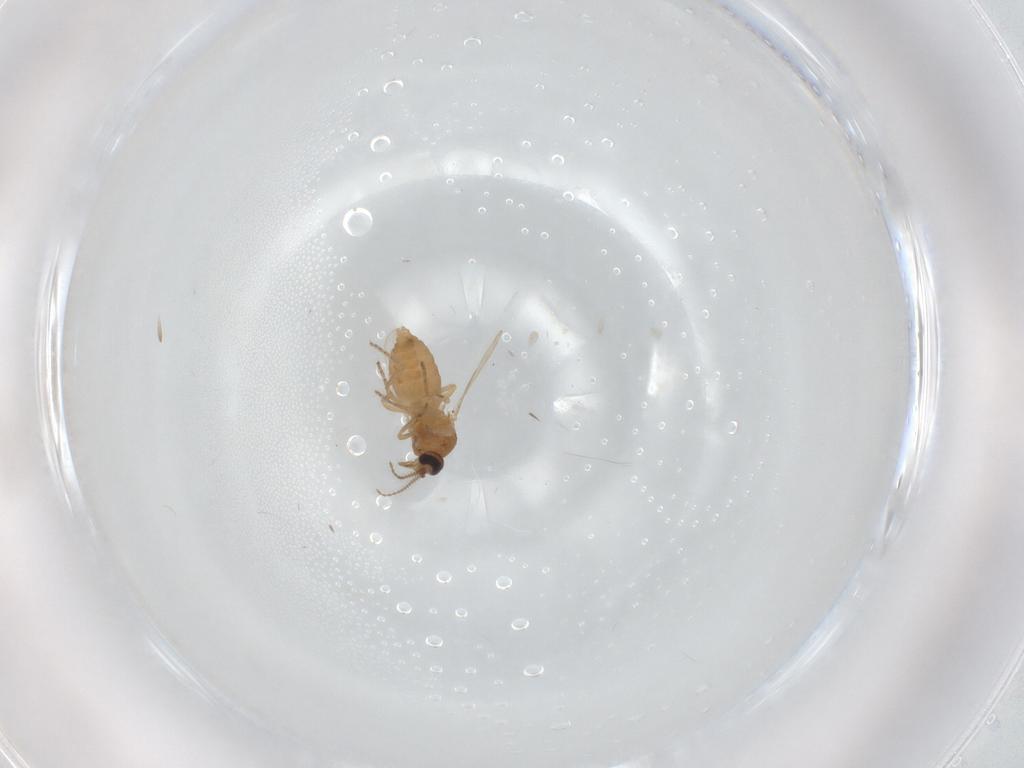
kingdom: Animalia
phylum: Arthropoda
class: Insecta
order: Diptera
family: Ceratopogonidae
